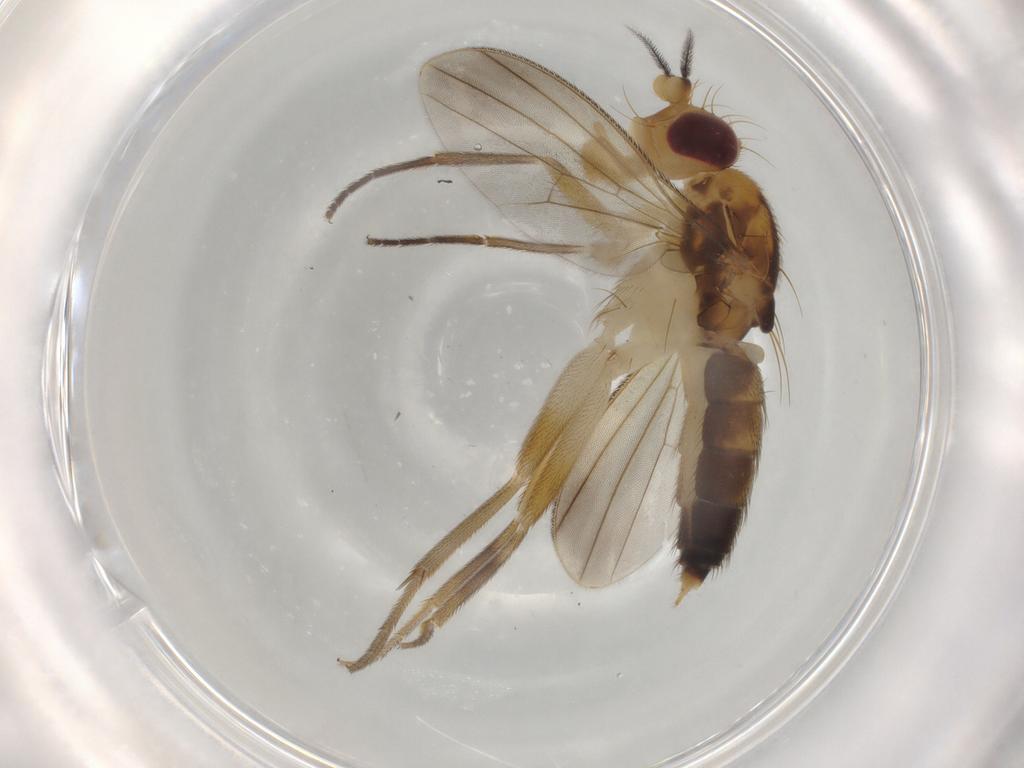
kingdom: Animalia
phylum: Arthropoda
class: Insecta
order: Diptera
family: Clusiidae
